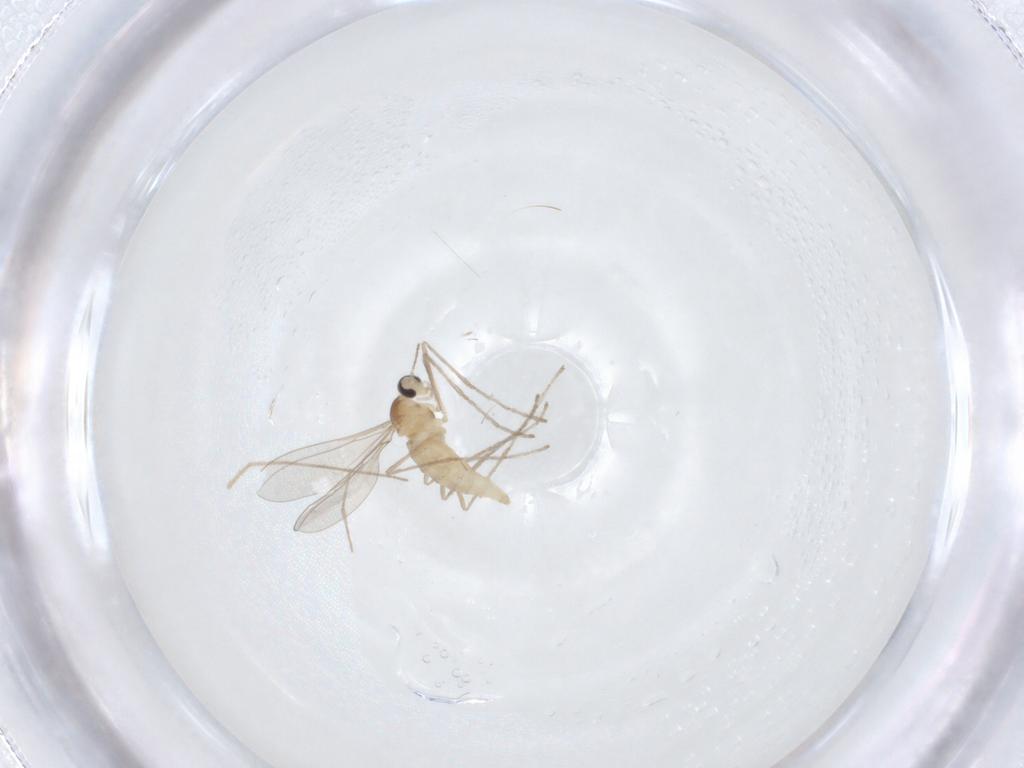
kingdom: Animalia
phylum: Arthropoda
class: Insecta
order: Diptera
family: Cecidomyiidae
